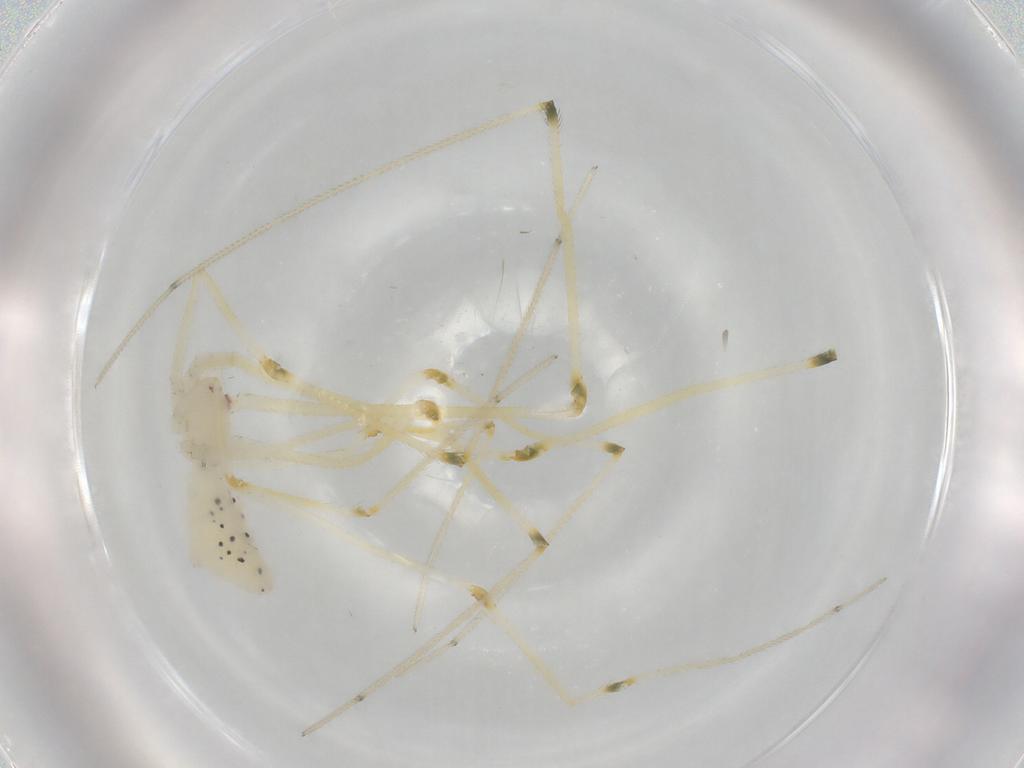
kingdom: Animalia
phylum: Arthropoda
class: Arachnida
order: Araneae
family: Pholcidae
